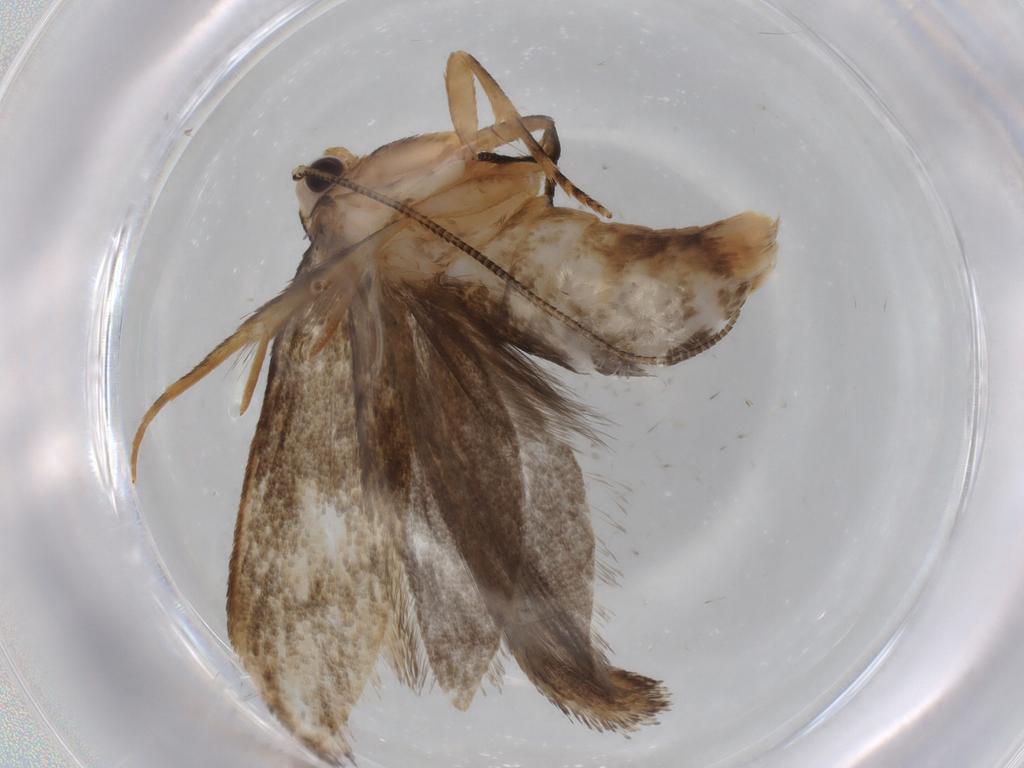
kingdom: Animalia
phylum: Arthropoda
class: Insecta
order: Lepidoptera
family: Tineidae
